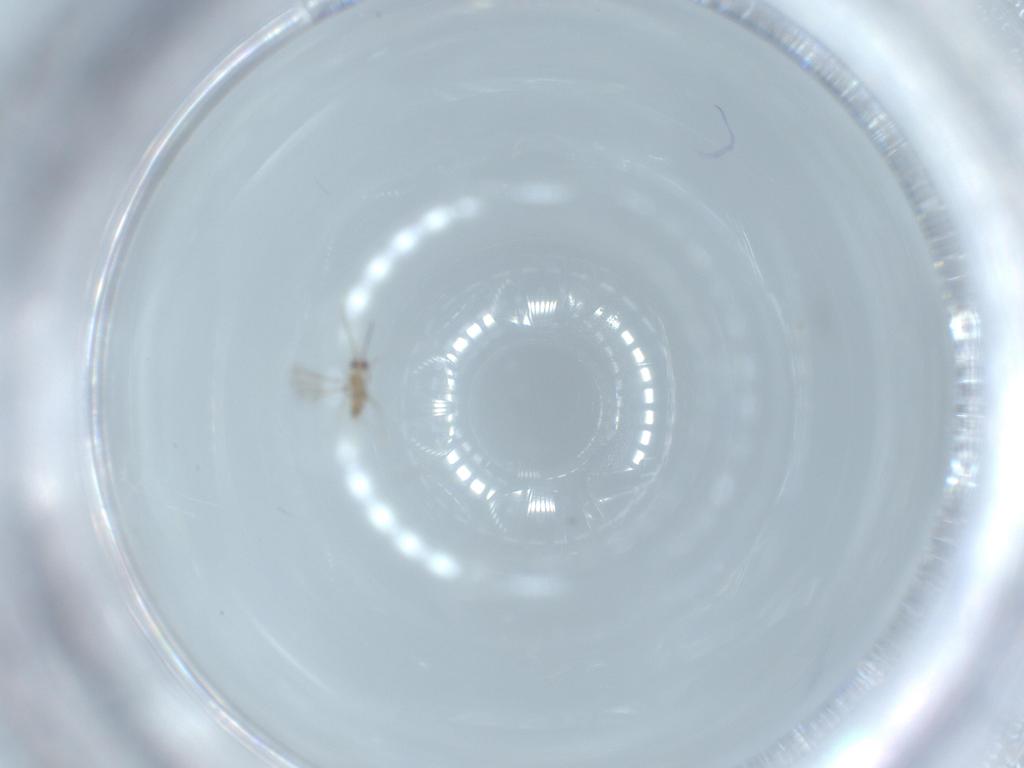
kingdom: Animalia
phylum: Arthropoda
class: Insecta
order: Hymenoptera
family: Mymaridae
